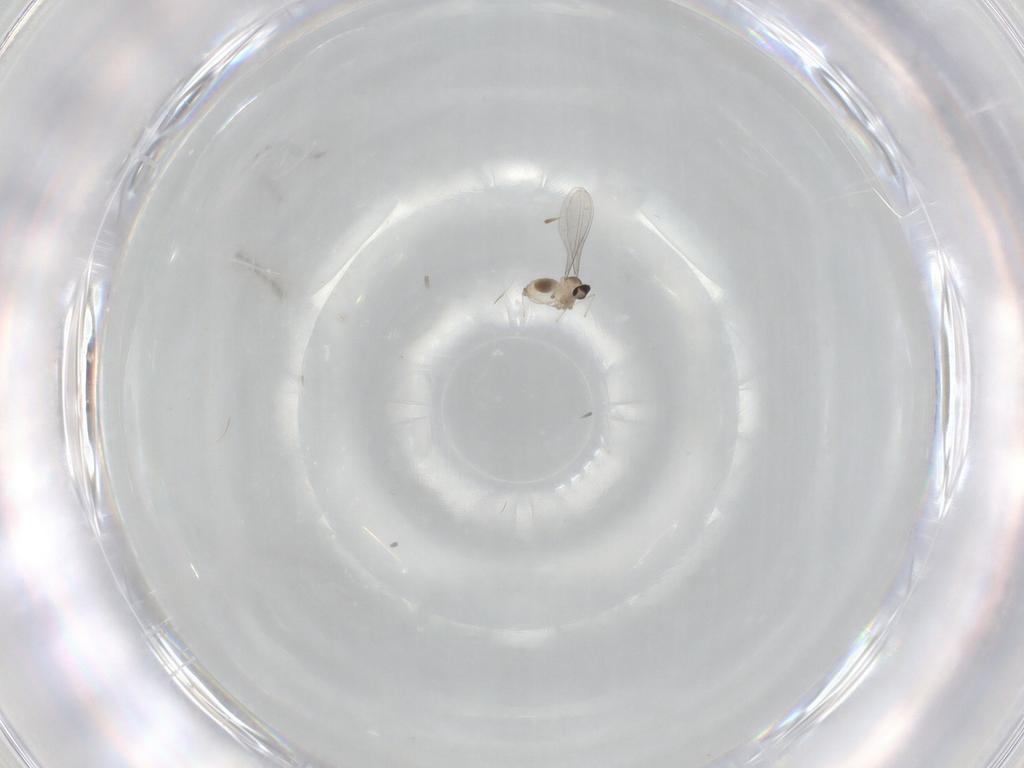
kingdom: Animalia
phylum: Arthropoda
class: Insecta
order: Diptera
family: Cecidomyiidae
